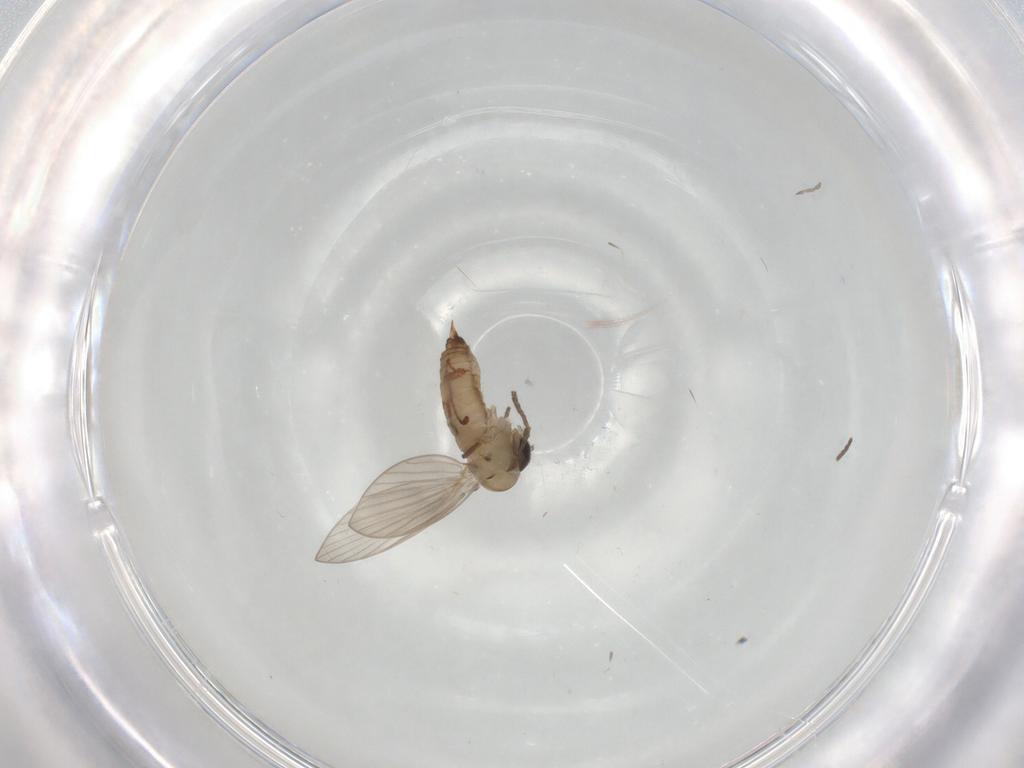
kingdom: Animalia
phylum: Arthropoda
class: Insecta
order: Diptera
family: Psychodidae
